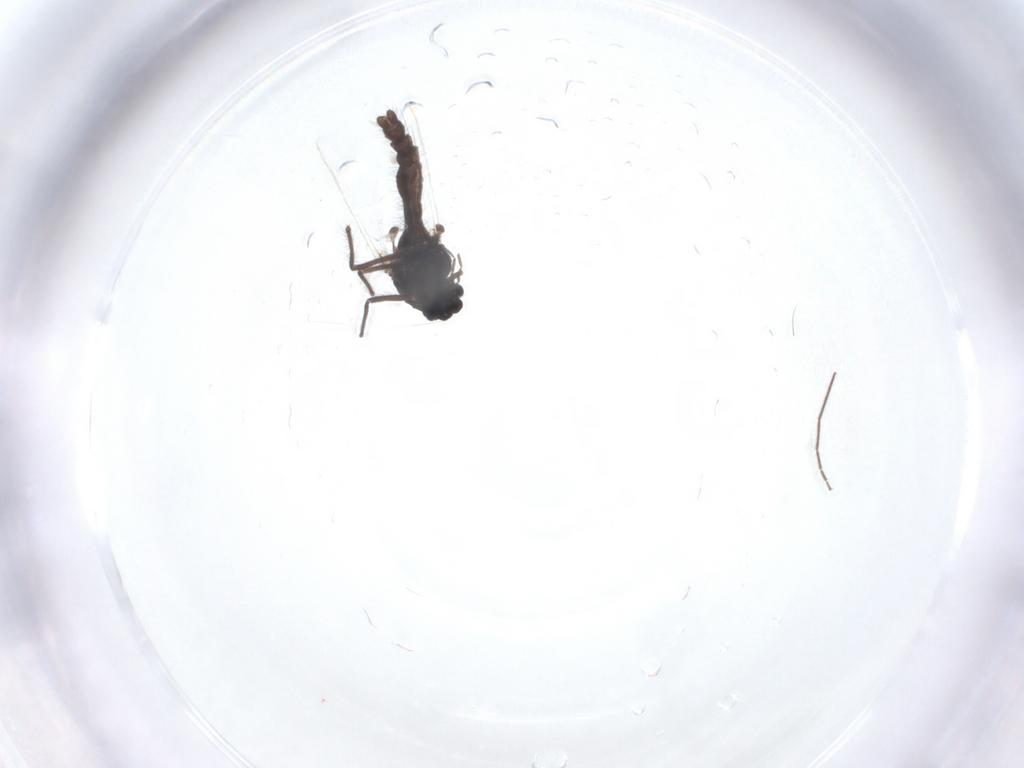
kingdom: Animalia
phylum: Arthropoda
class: Insecta
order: Diptera
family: Chironomidae
